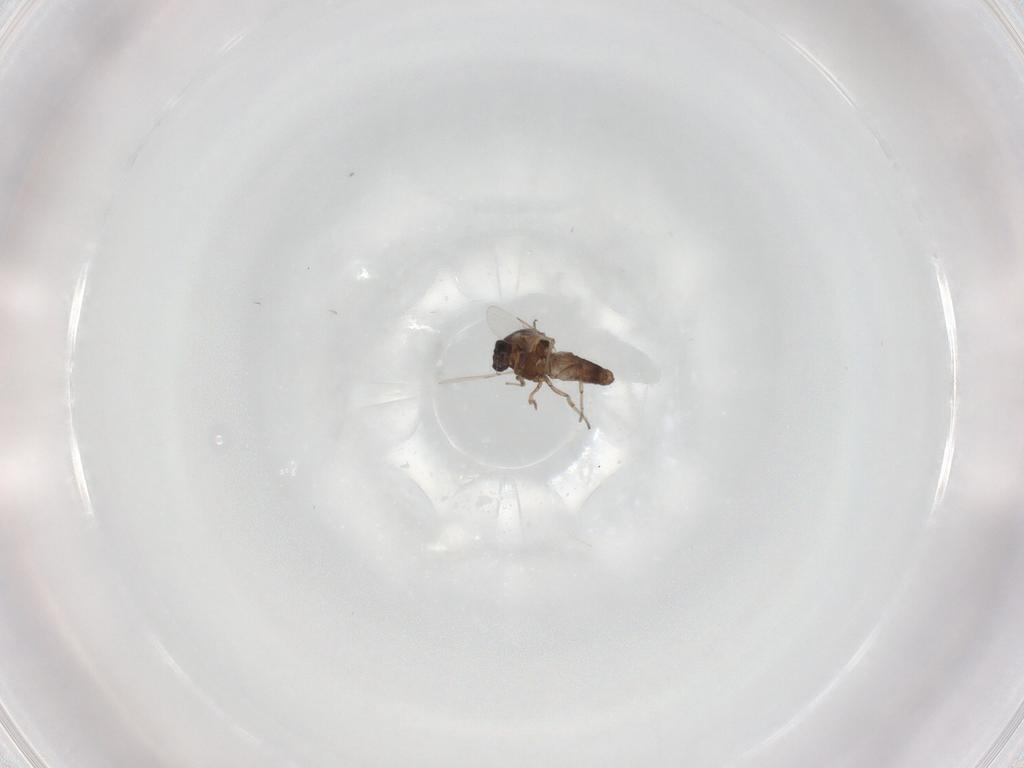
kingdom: Animalia
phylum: Arthropoda
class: Insecta
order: Diptera
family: Ceratopogonidae
